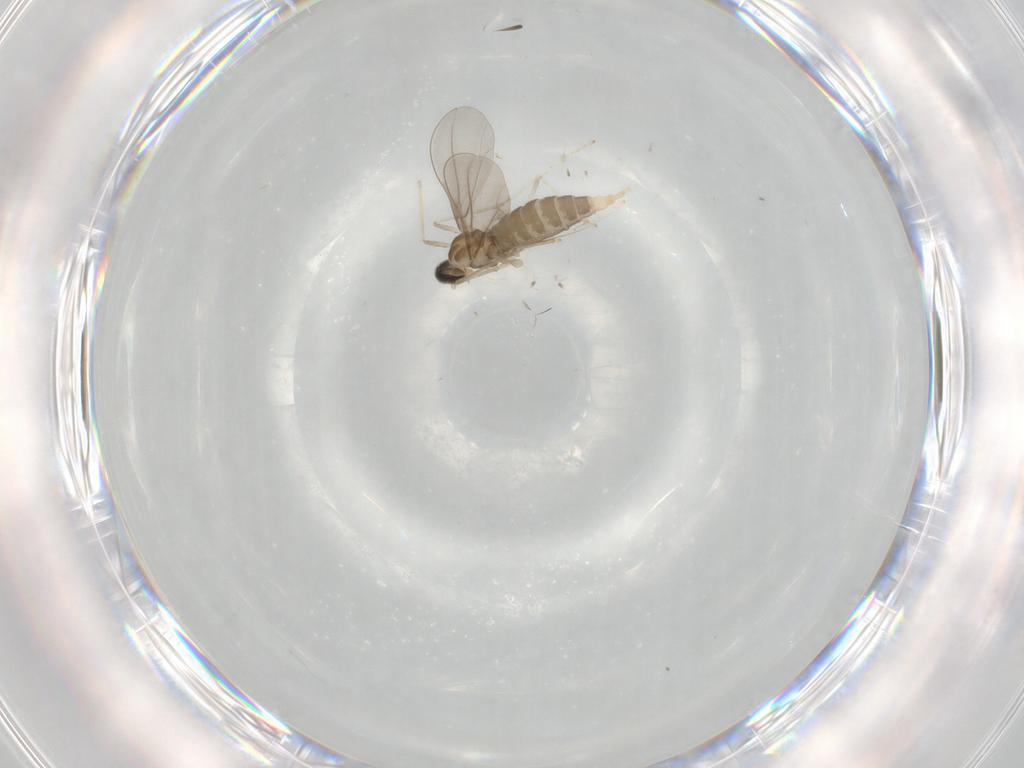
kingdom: Animalia
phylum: Arthropoda
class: Insecta
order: Diptera
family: Cecidomyiidae
